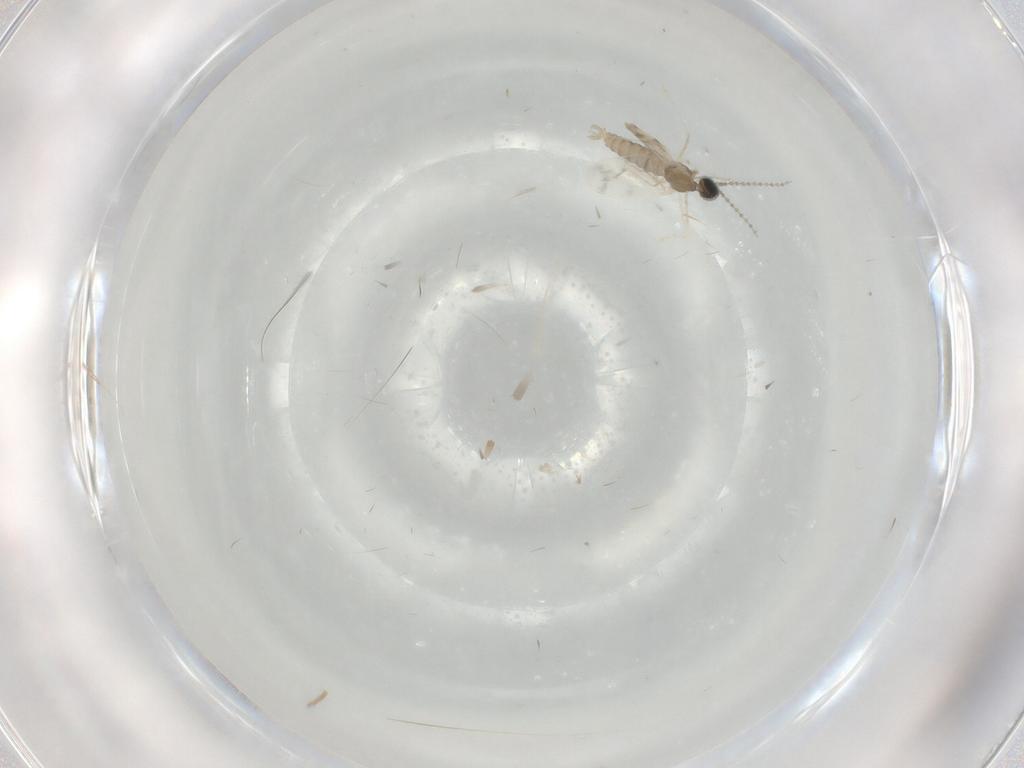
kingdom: Animalia
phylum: Arthropoda
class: Insecta
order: Diptera
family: Cecidomyiidae
